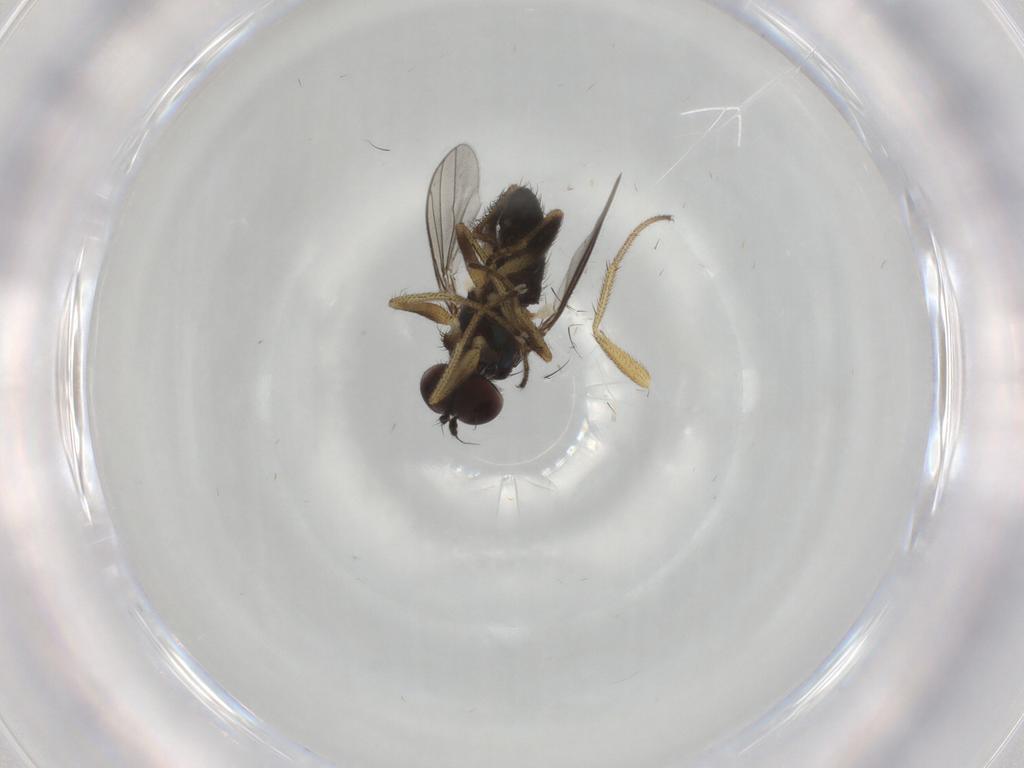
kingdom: Animalia
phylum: Arthropoda
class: Insecta
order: Diptera
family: Dolichopodidae
